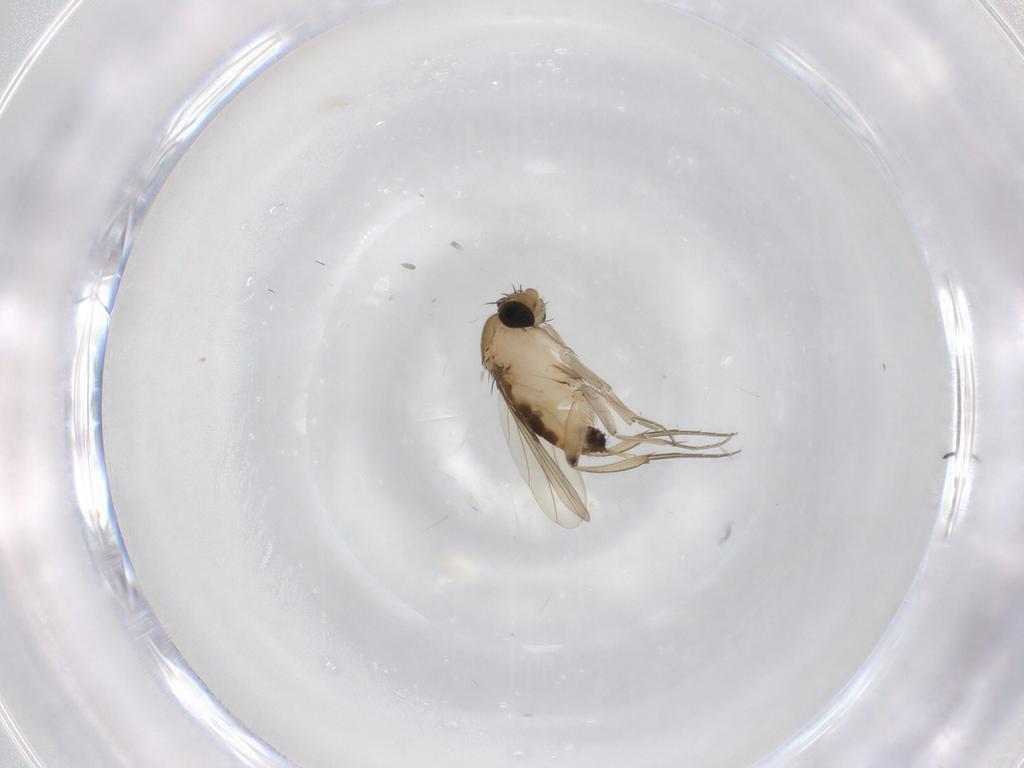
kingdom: Animalia
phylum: Arthropoda
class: Insecta
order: Diptera
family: Phoridae
